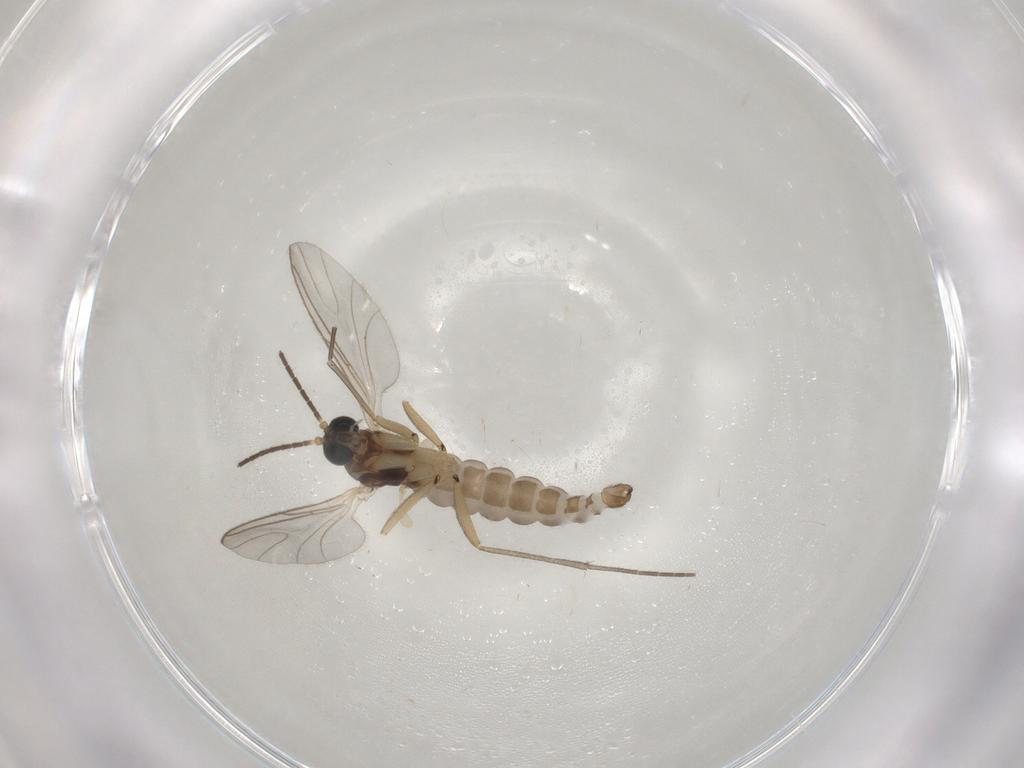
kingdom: Animalia
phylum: Arthropoda
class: Insecta
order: Diptera
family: Sciaridae
